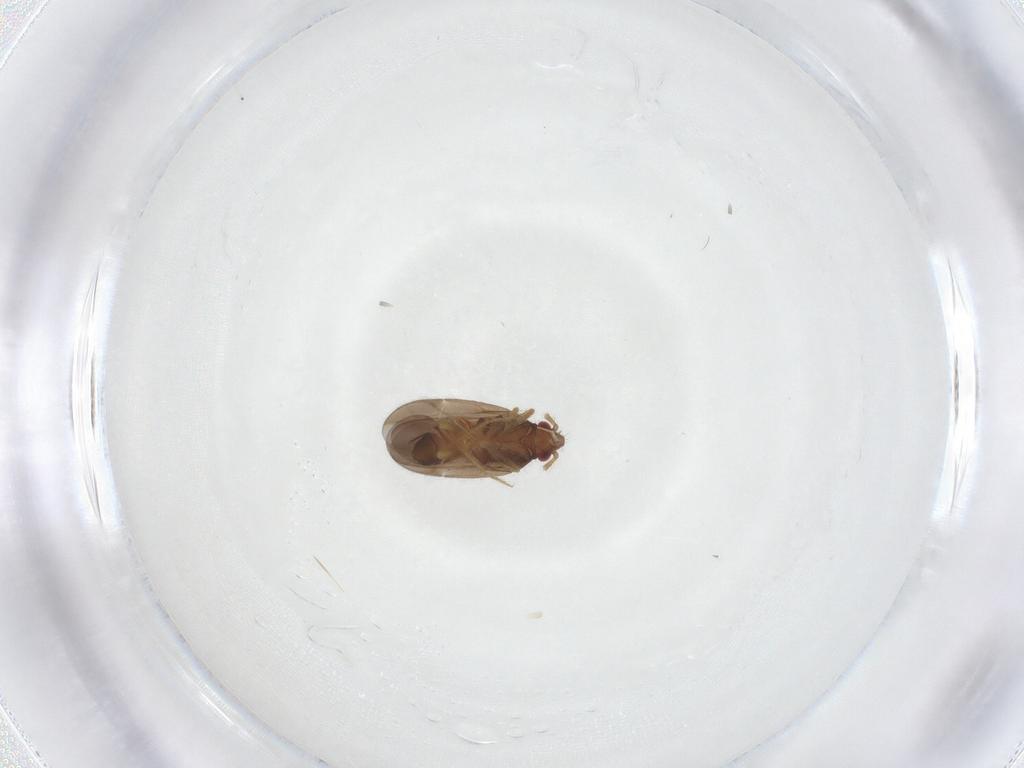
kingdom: Animalia
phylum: Arthropoda
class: Insecta
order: Hemiptera
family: Ceratocombidae
